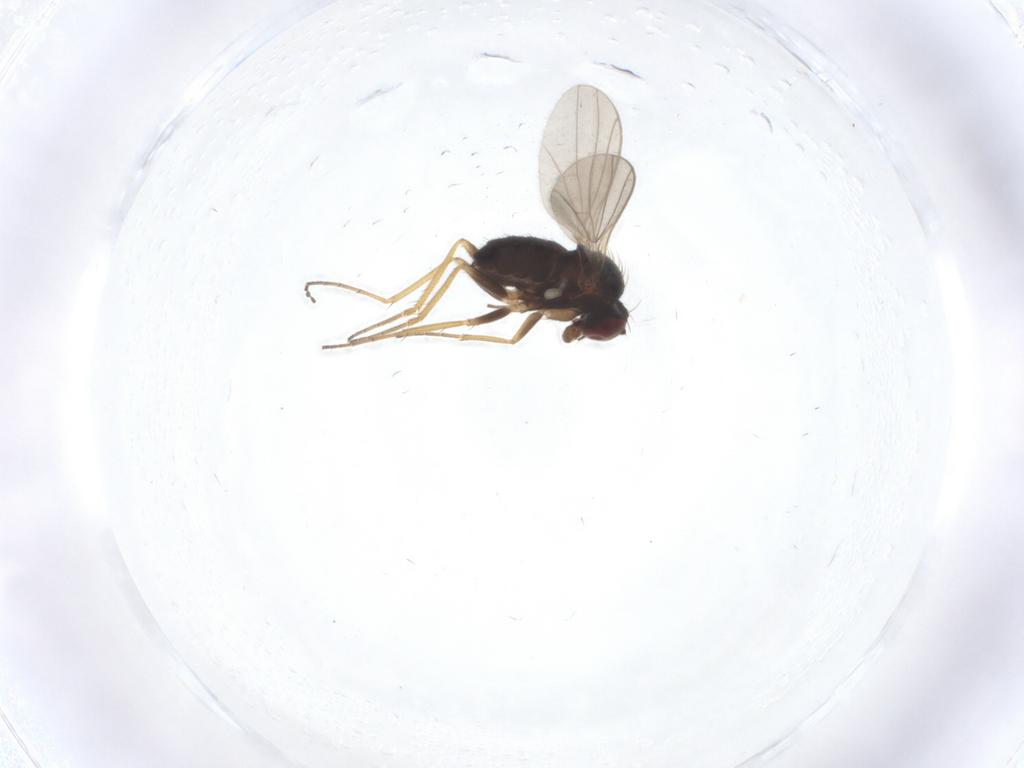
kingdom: Animalia
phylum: Arthropoda
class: Insecta
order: Diptera
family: Dolichopodidae
